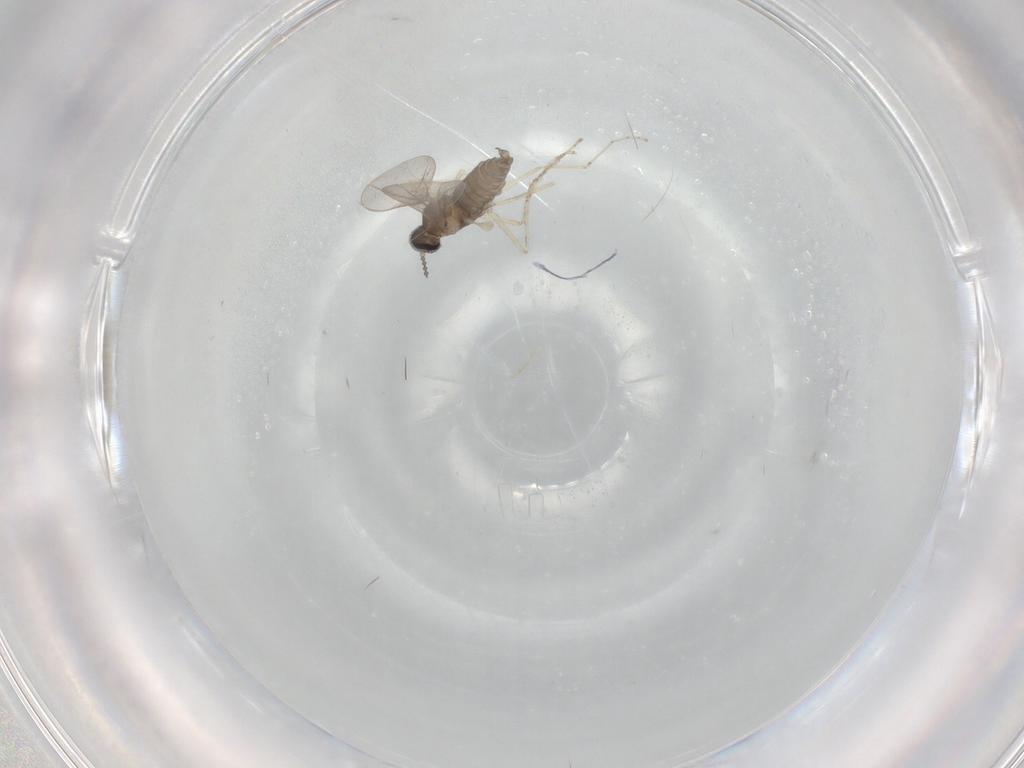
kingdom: Animalia
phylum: Arthropoda
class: Insecta
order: Diptera
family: Cecidomyiidae
